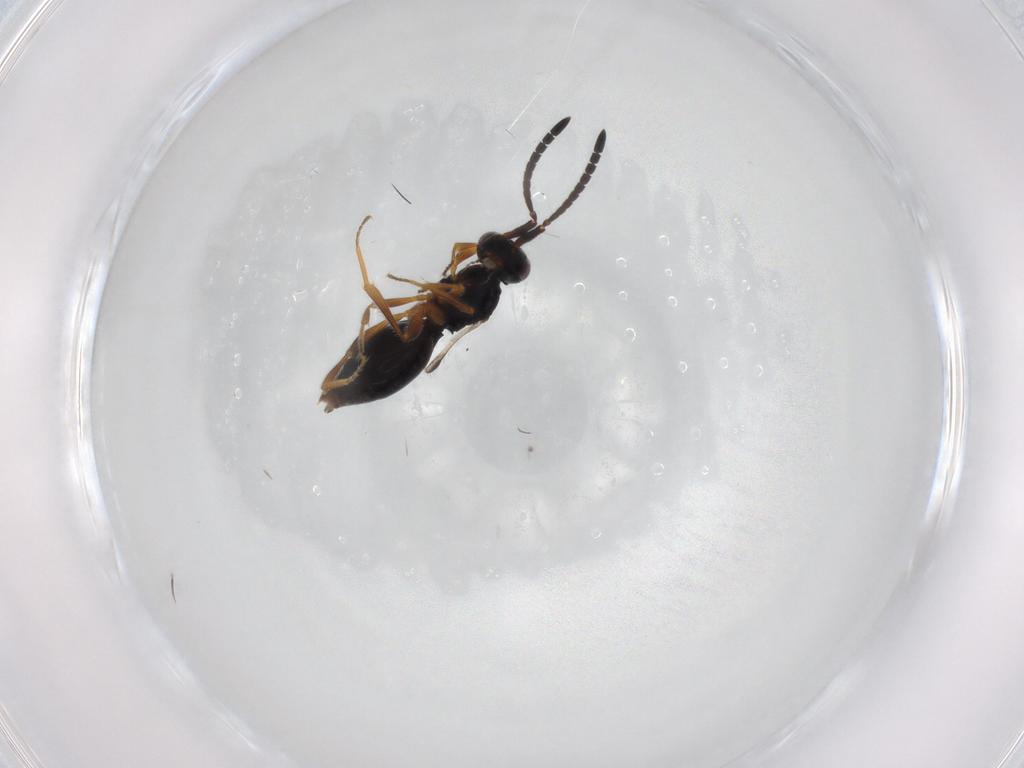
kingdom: Animalia
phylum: Arthropoda
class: Insecta
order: Hymenoptera
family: Megaspilidae
